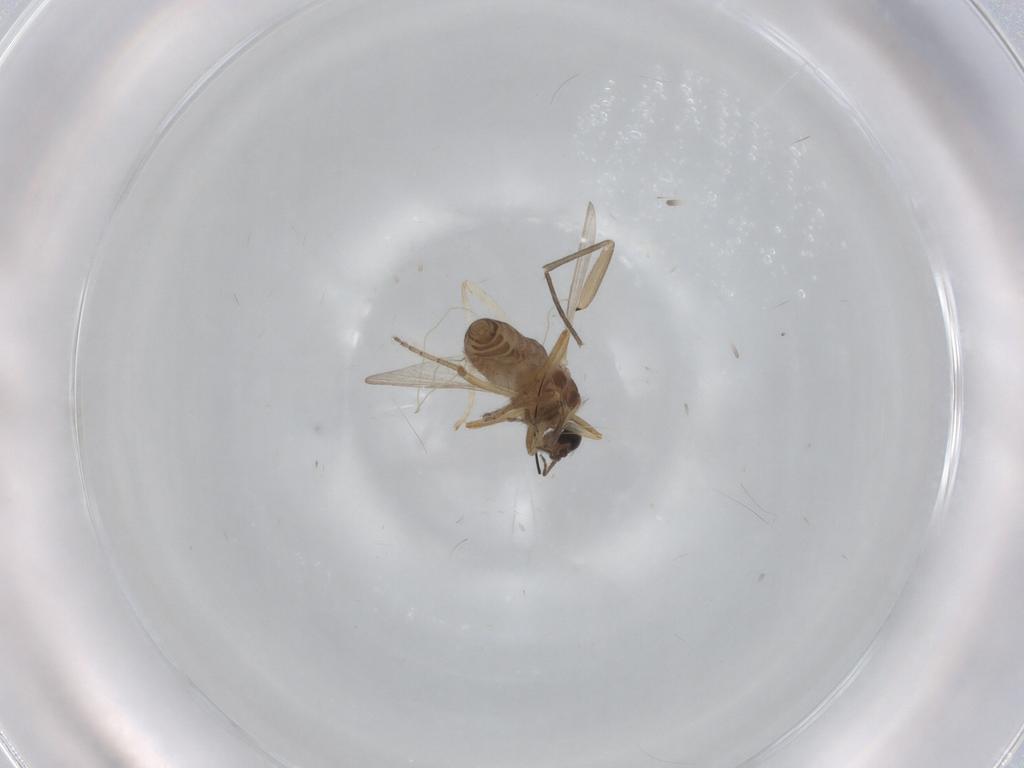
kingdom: Animalia
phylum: Arthropoda
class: Insecta
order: Diptera
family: Ceratopogonidae
